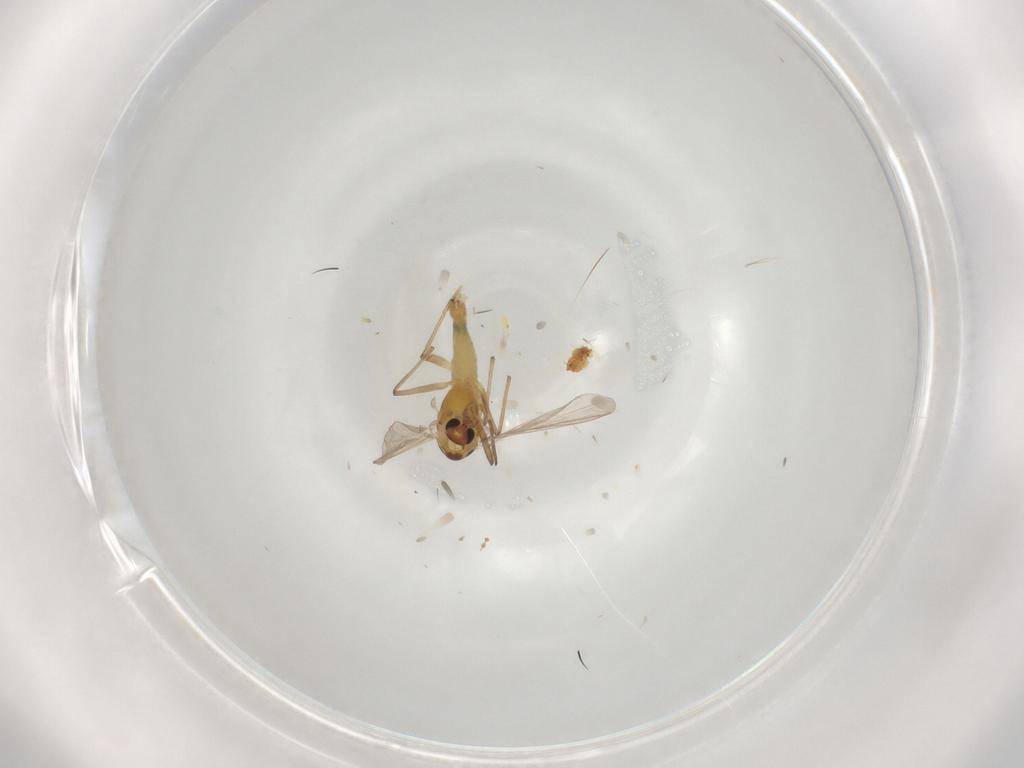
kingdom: Animalia
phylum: Arthropoda
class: Insecta
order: Diptera
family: Chironomidae
